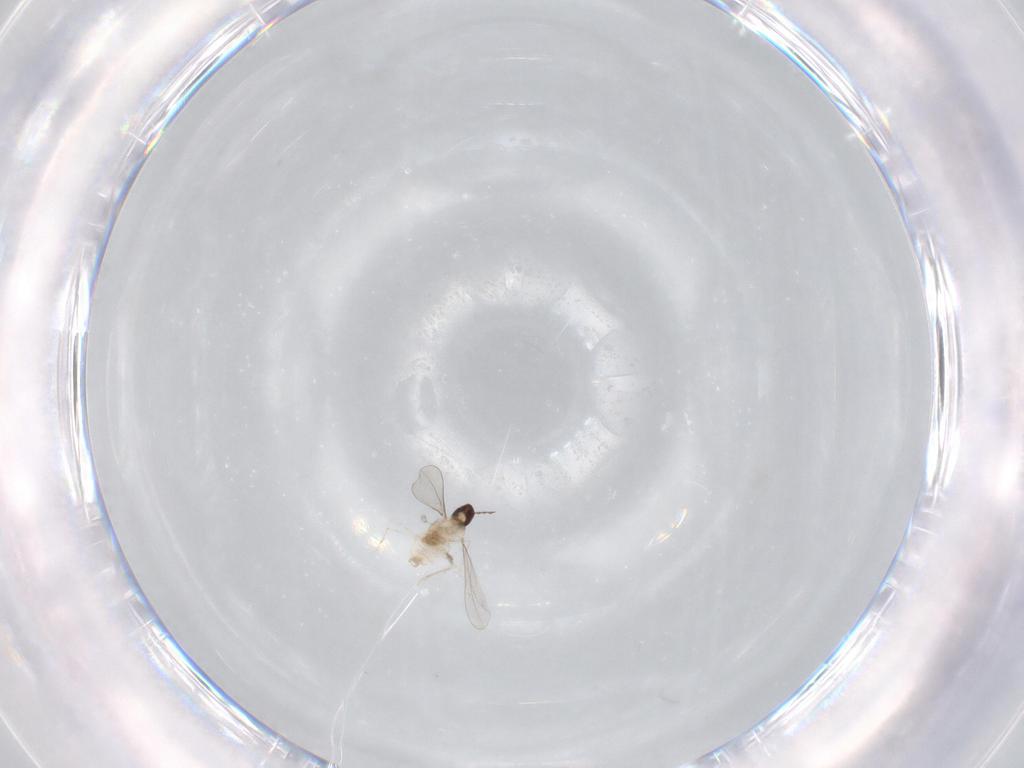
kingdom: Animalia
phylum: Arthropoda
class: Insecta
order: Diptera
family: Cecidomyiidae
